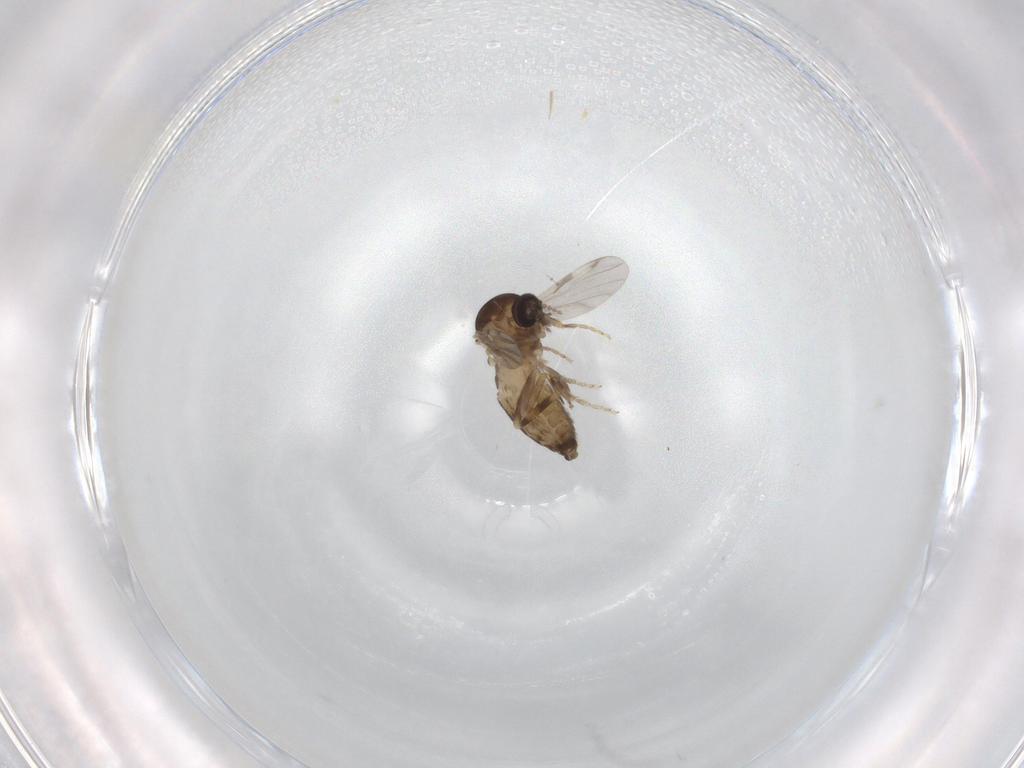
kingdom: Animalia
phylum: Arthropoda
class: Insecta
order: Diptera
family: Ceratopogonidae
